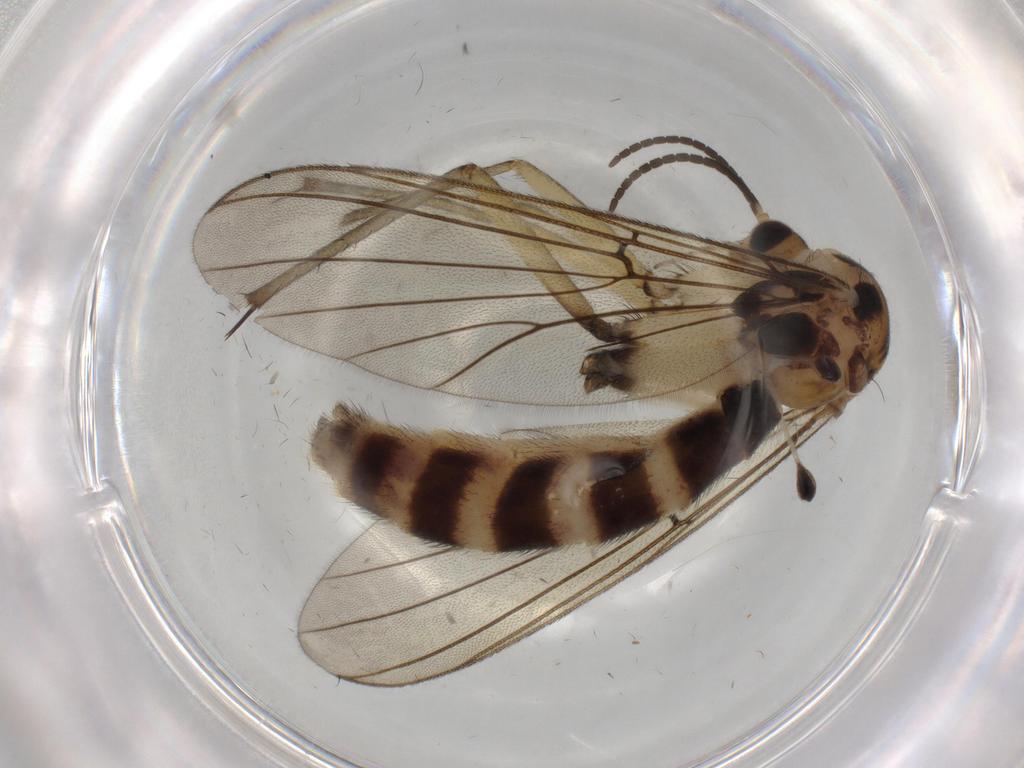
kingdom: Animalia
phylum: Arthropoda
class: Insecta
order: Diptera
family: Mycetophilidae
